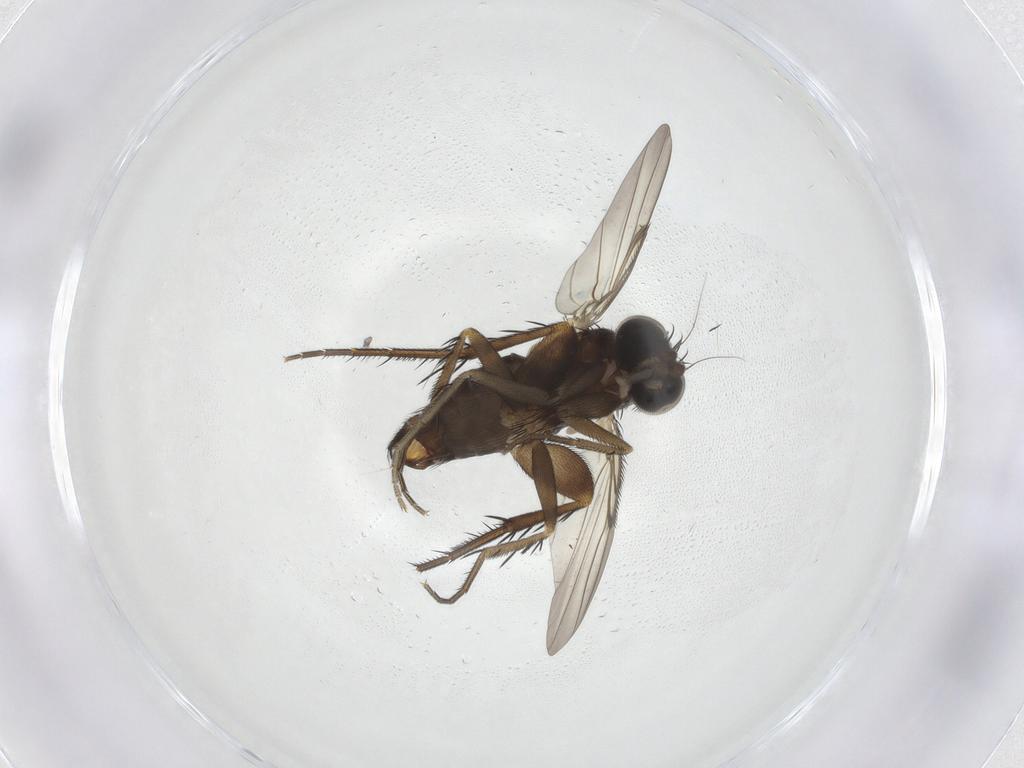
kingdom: Animalia
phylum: Arthropoda
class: Insecta
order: Diptera
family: Phoridae
